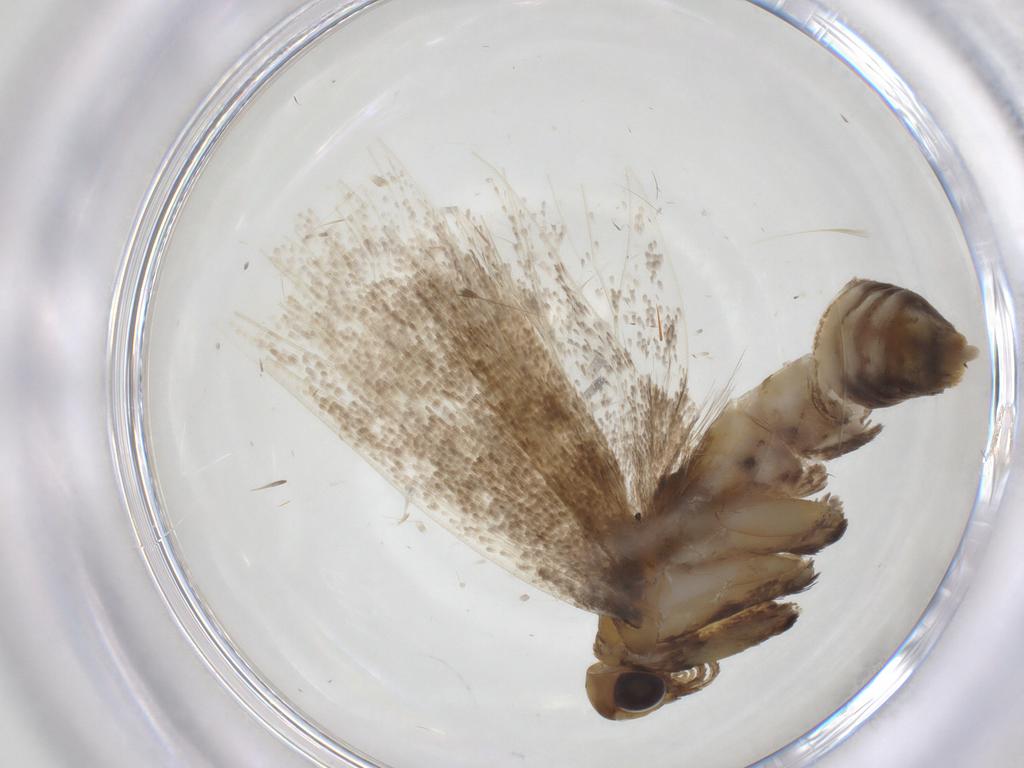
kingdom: Animalia
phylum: Arthropoda
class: Insecta
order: Lepidoptera
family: Lecithoceridae
